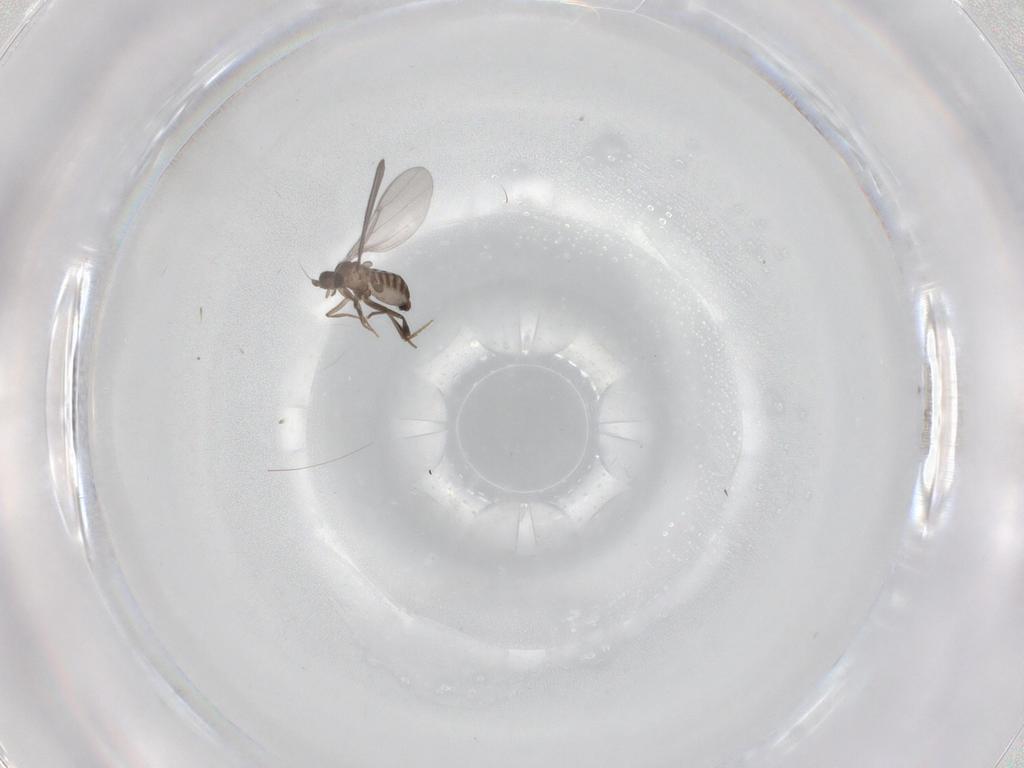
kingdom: Animalia
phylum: Arthropoda
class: Insecta
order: Diptera
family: Phoridae
